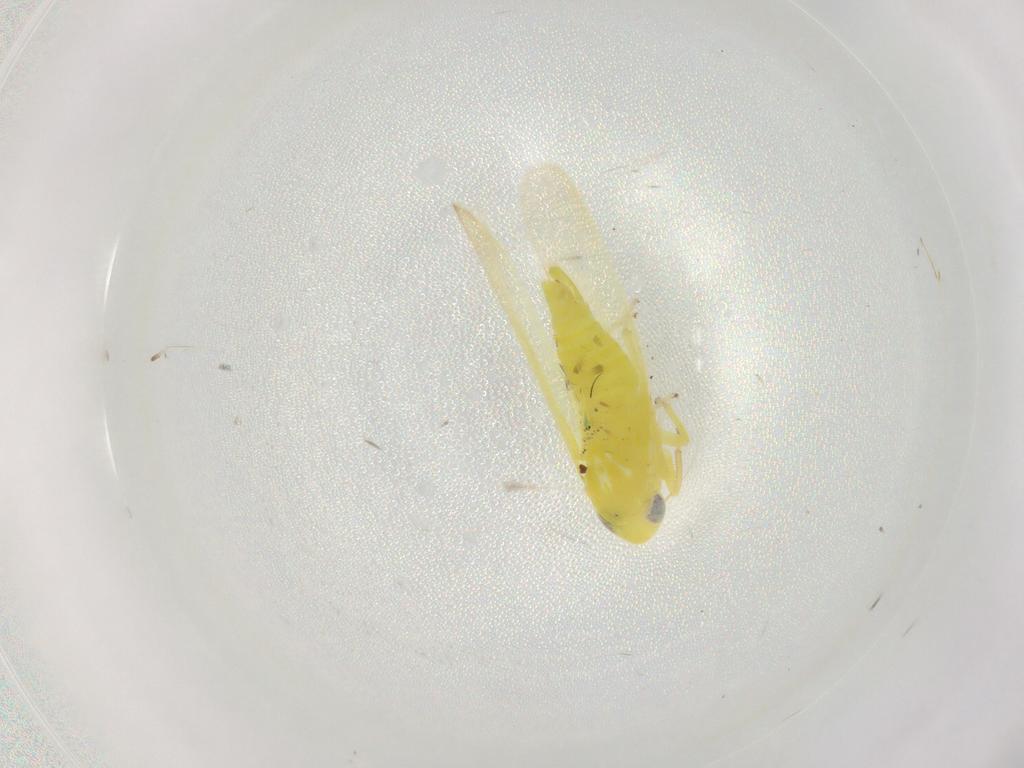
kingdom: Animalia
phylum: Arthropoda
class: Insecta
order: Hemiptera
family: Cicadellidae
